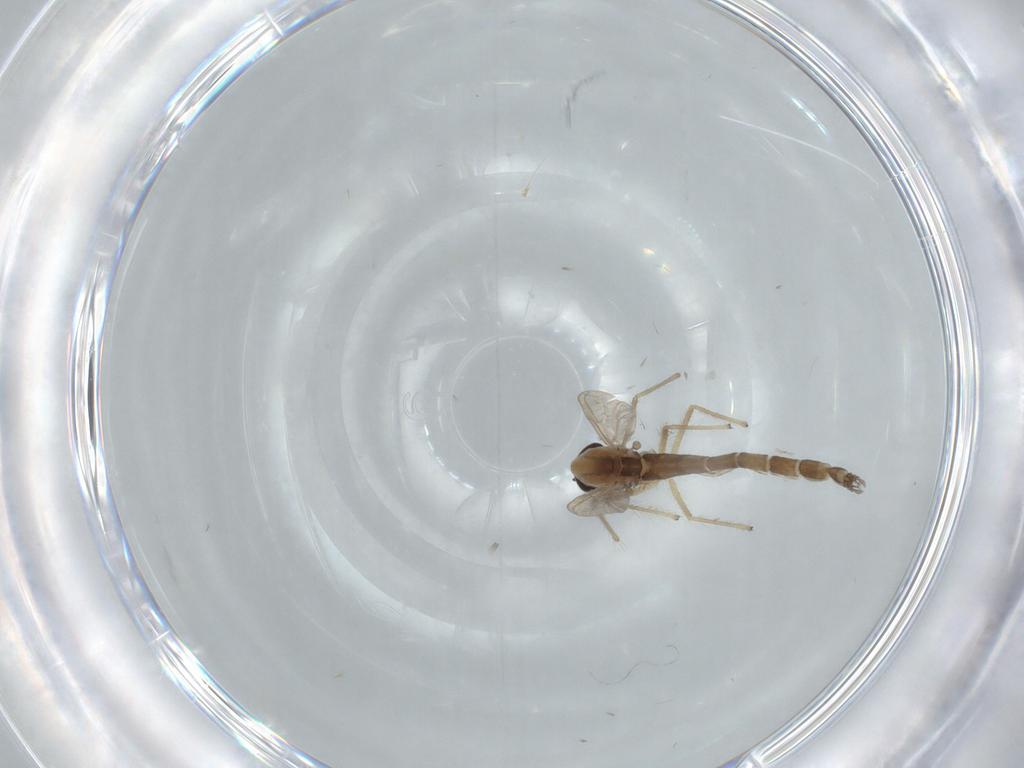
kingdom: Animalia
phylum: Arthropoda
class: Insecta
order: Diptera
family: Chironomidae
